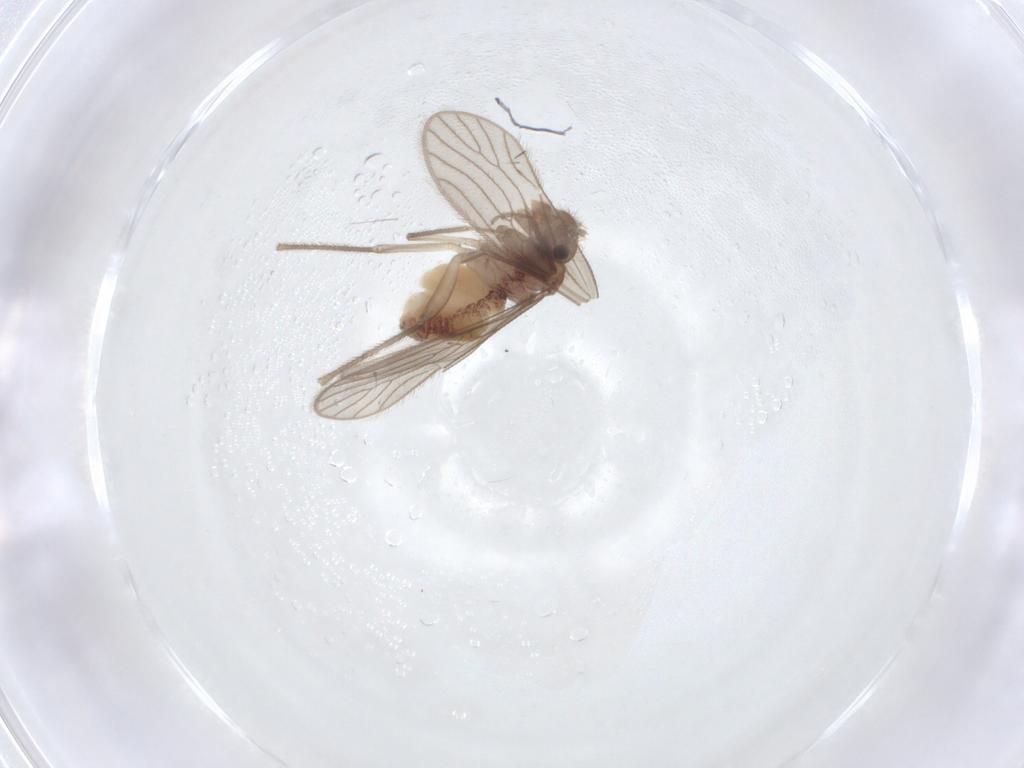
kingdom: Animalia
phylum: Arthropoda
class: Insecta
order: Psocodea
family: Cladiopsocidae
